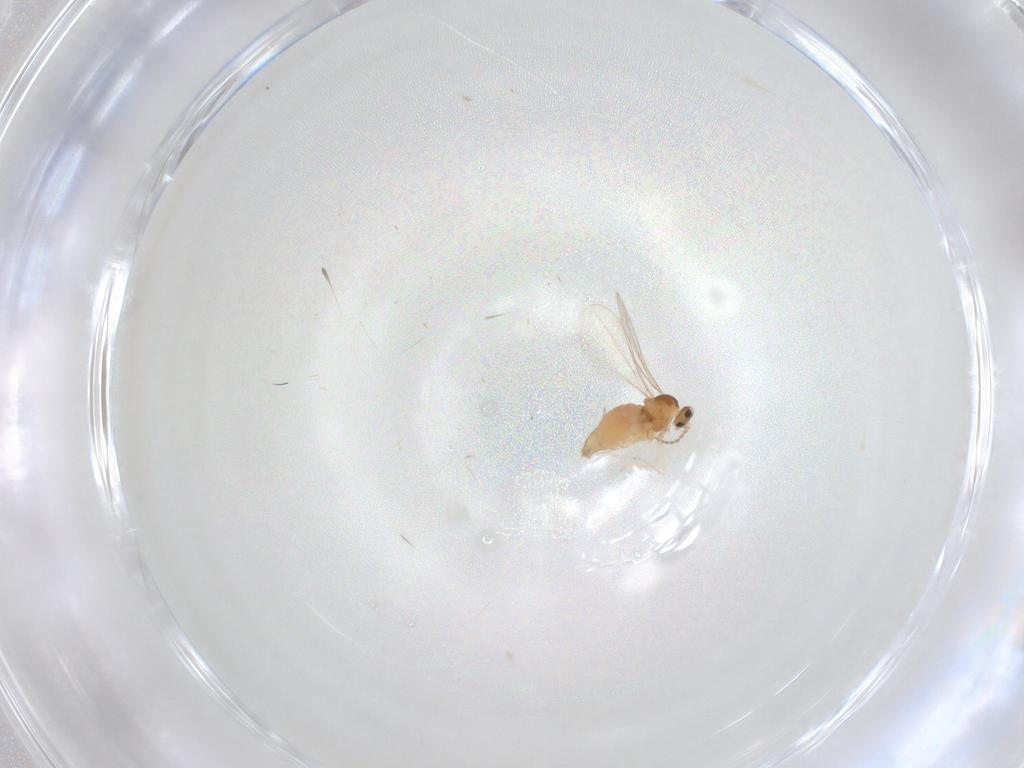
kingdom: Animalia
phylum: Arthropoda
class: Insecta
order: Diptera
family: Cecidomyiidae
